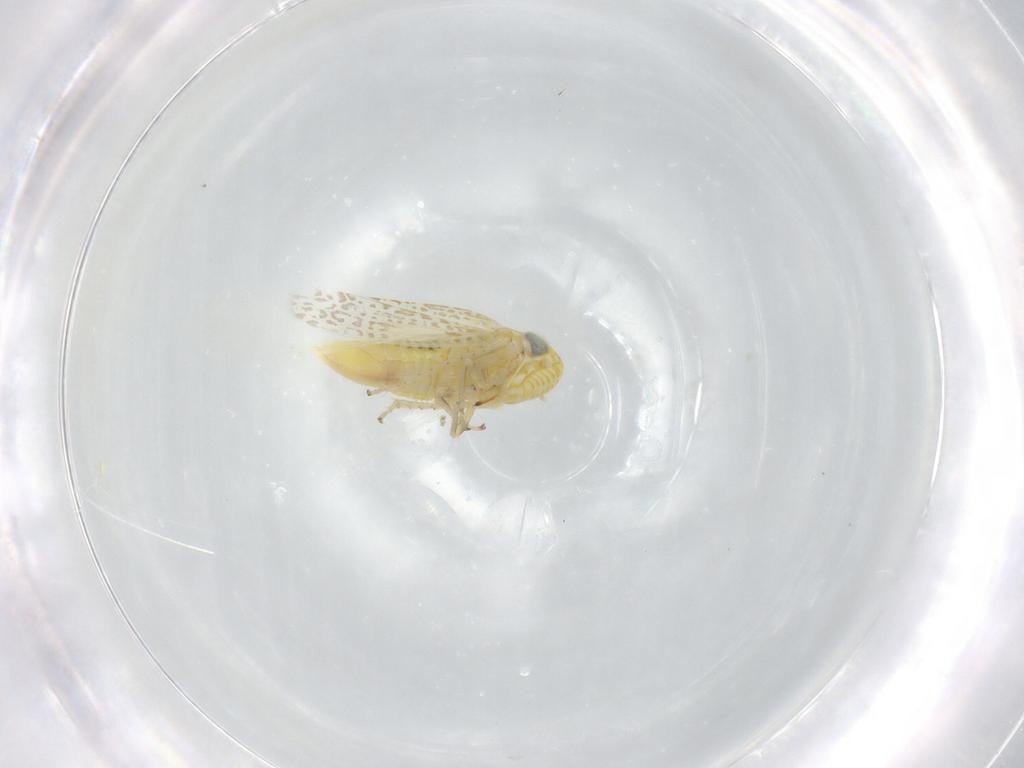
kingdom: Animalia
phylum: Arthropoda
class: Insecta
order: Hemiptera
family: Cicadellidae
